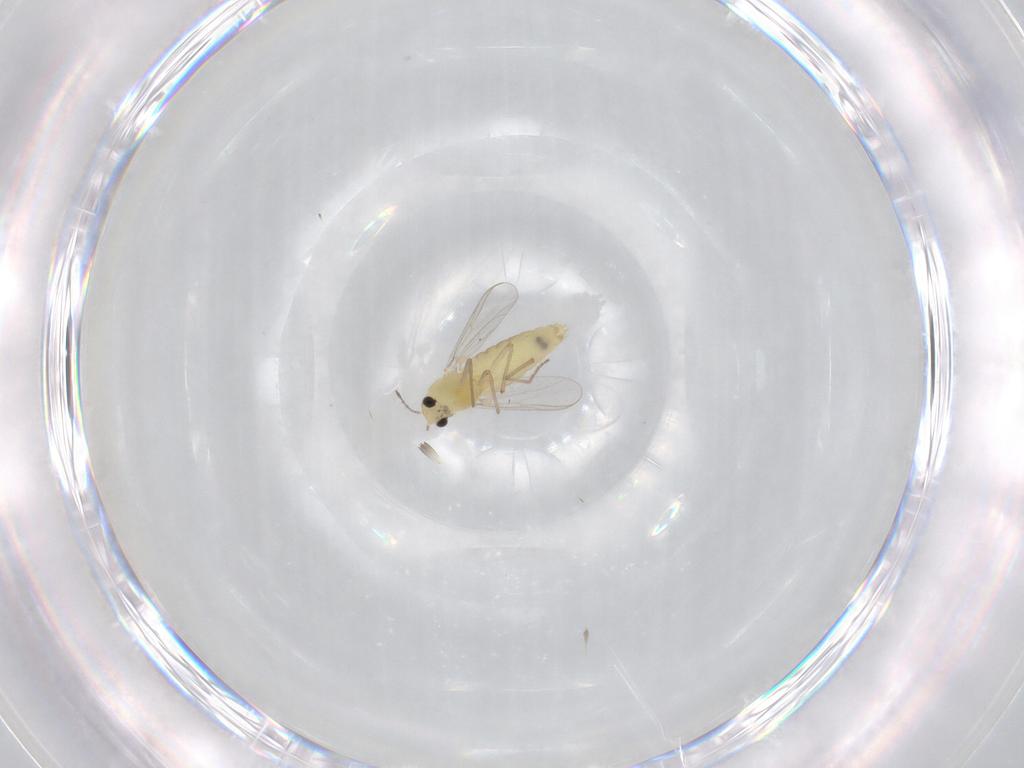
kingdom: Animalia
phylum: Arthropoda
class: Insecta
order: Diptera
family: Chironomidae
